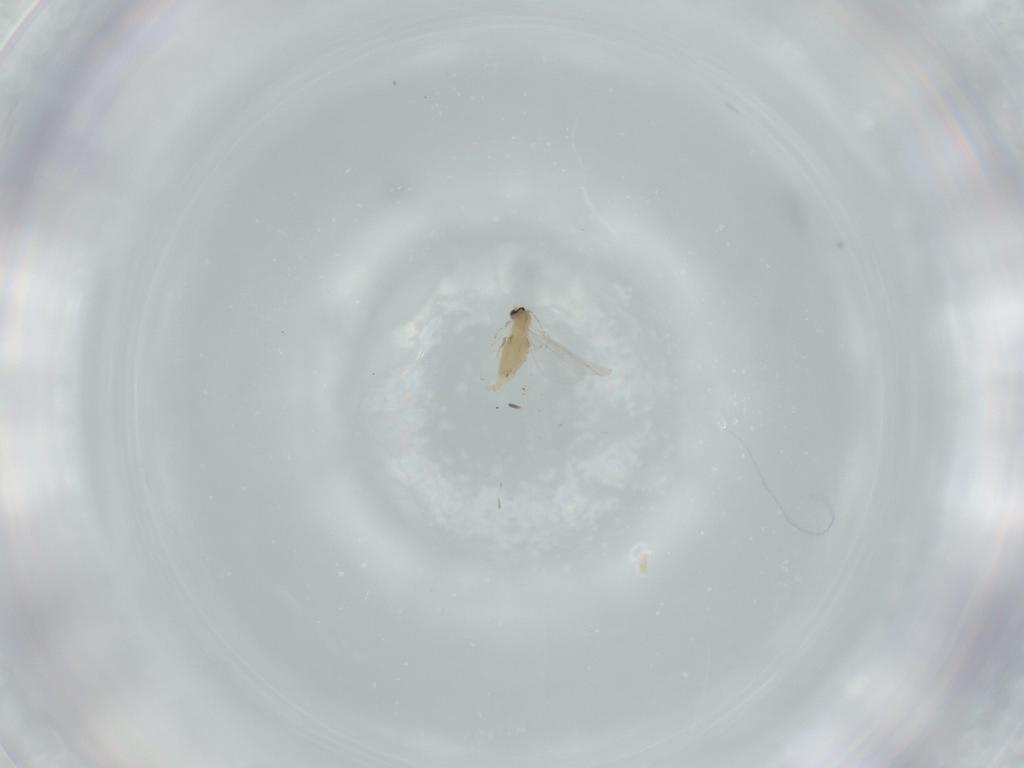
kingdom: Animalia
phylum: Arthropoda
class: Insecta
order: Diptera
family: Cecidomyiidae
